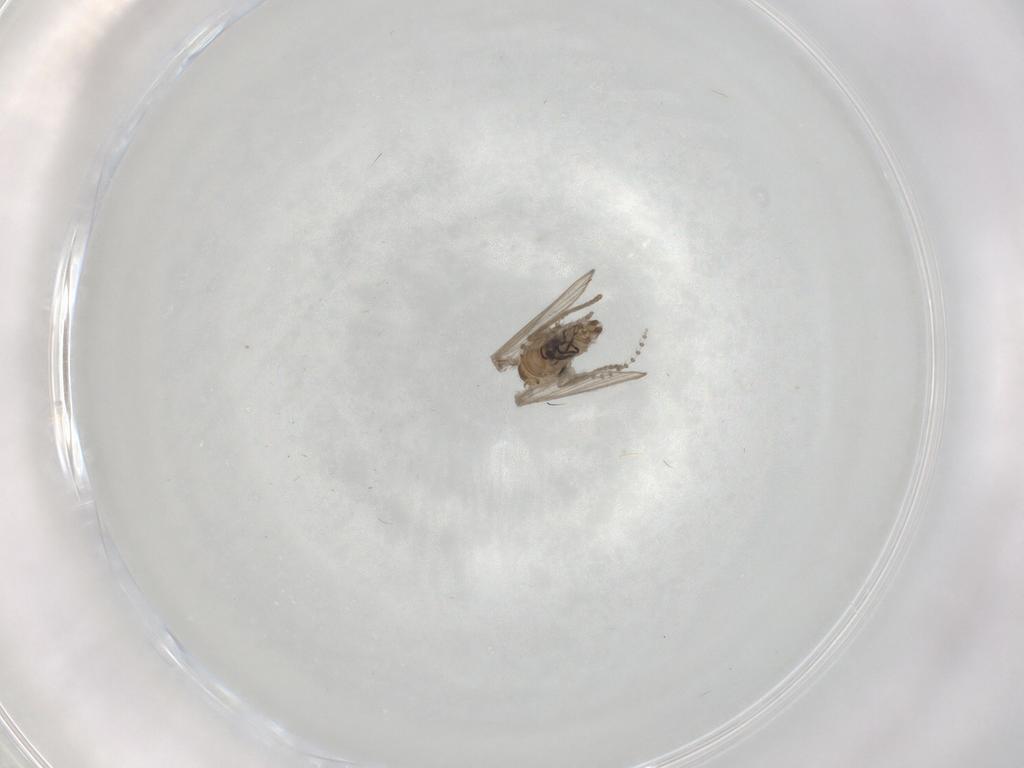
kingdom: Animalia
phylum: Arthropoda
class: Insecta
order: Diptera
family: Psychodidae
